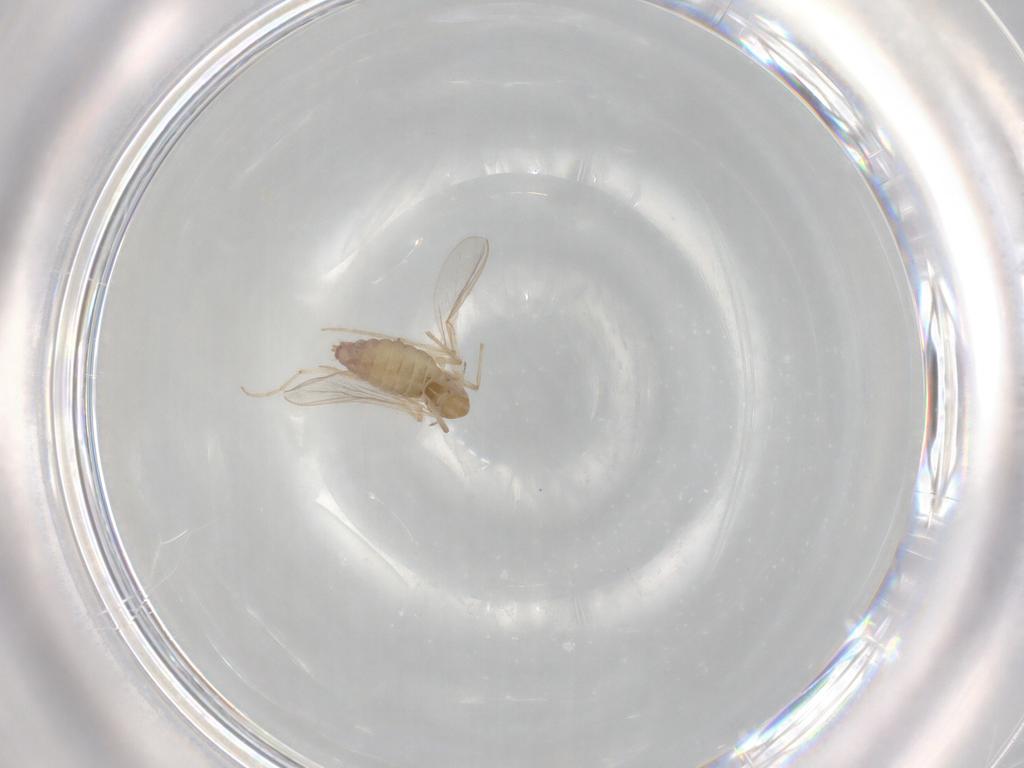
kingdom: Animalia
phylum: Arthropoda
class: Insecta
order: Diptera
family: Chironomidae
